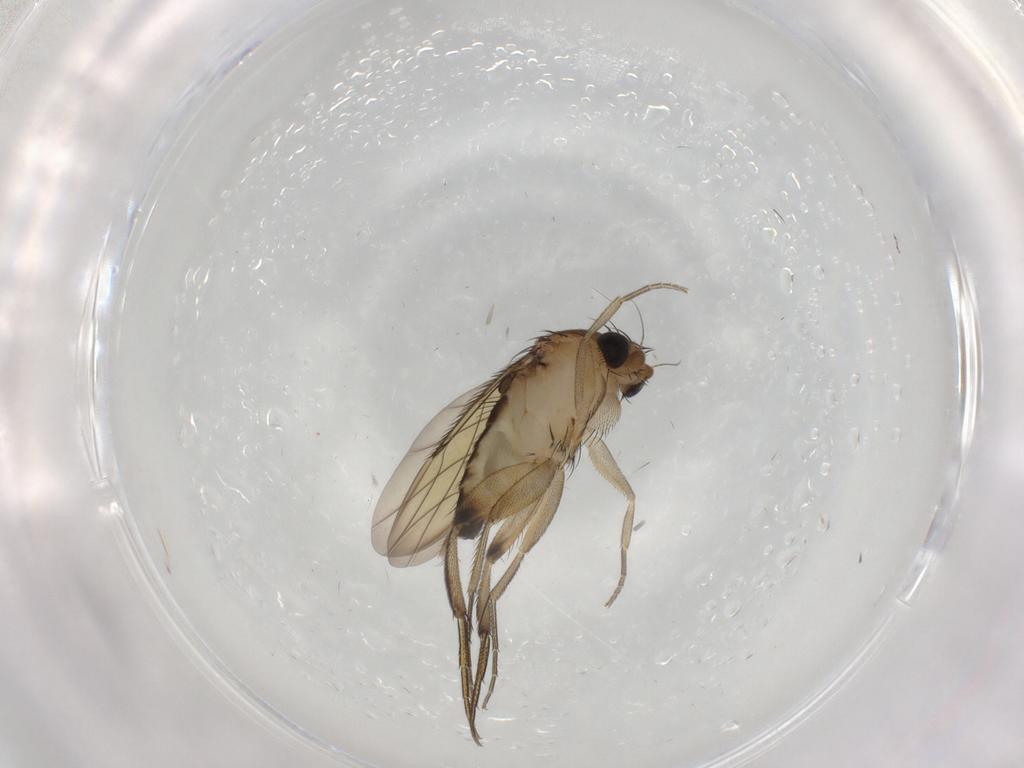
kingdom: Animalia
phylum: Arthropoda
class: Insecta
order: Diptera
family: Phoridae
